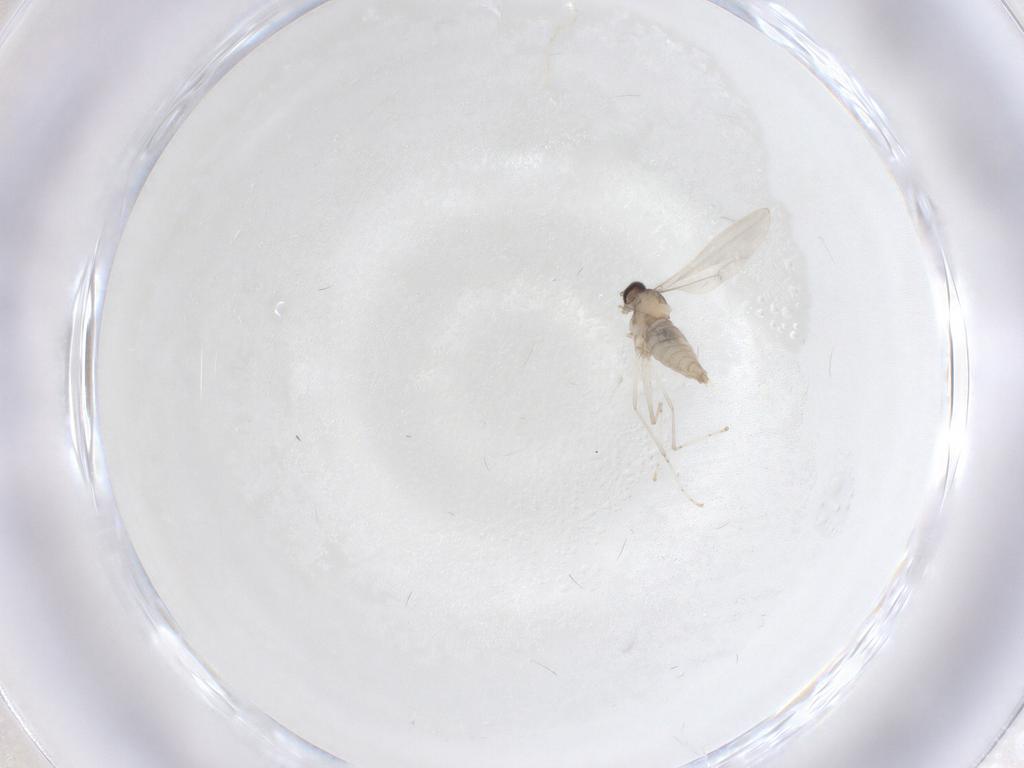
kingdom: Animalia
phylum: Arthropoda
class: Insecta
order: Diptera
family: Cecidomyiidae
